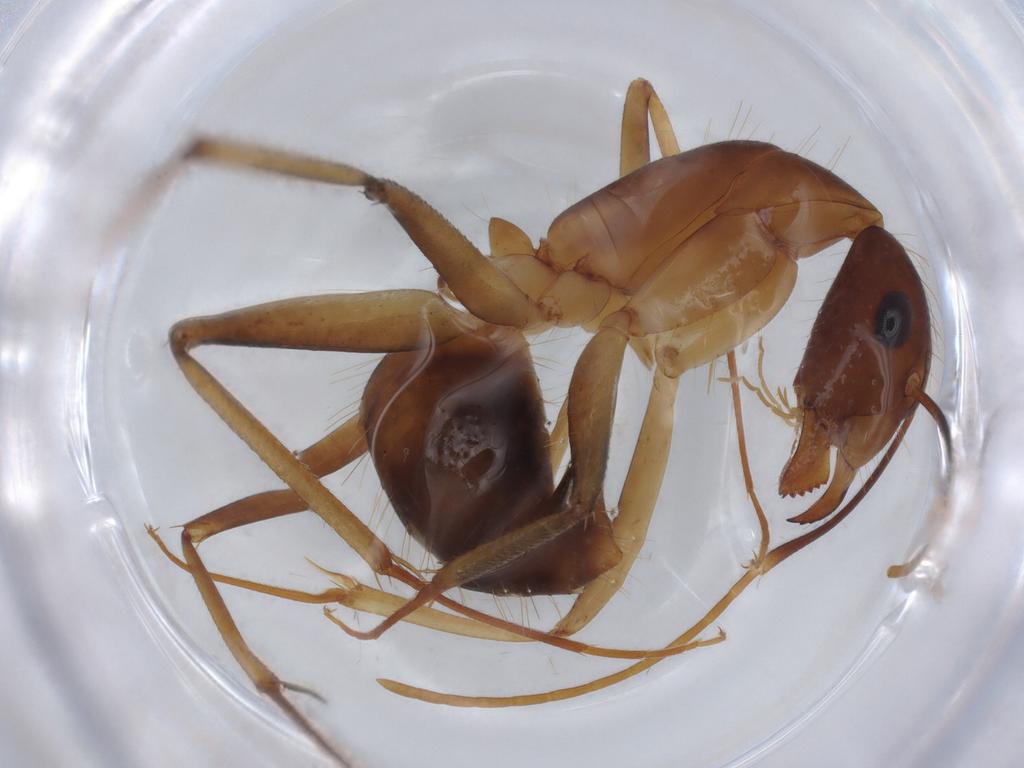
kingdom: Animalia
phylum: Arthropoda
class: Insecta
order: Hymenoptera
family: Formicidae
